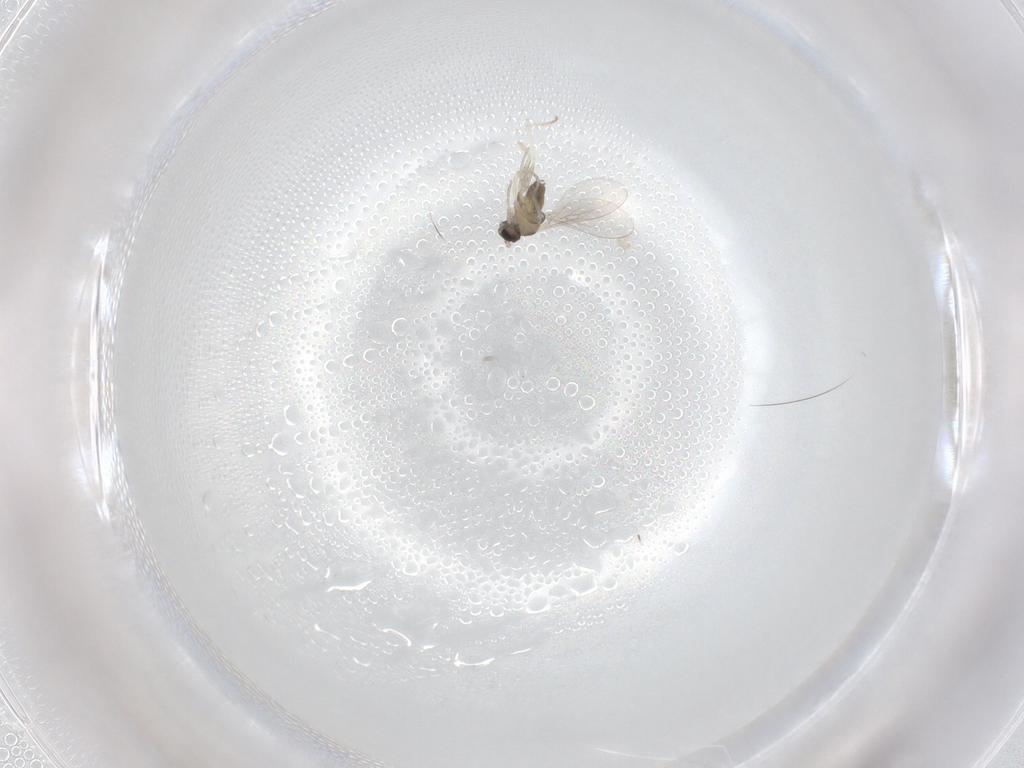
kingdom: Animalia
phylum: Arthropoda
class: Insecta
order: Diptera
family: Cecidomyiidae
